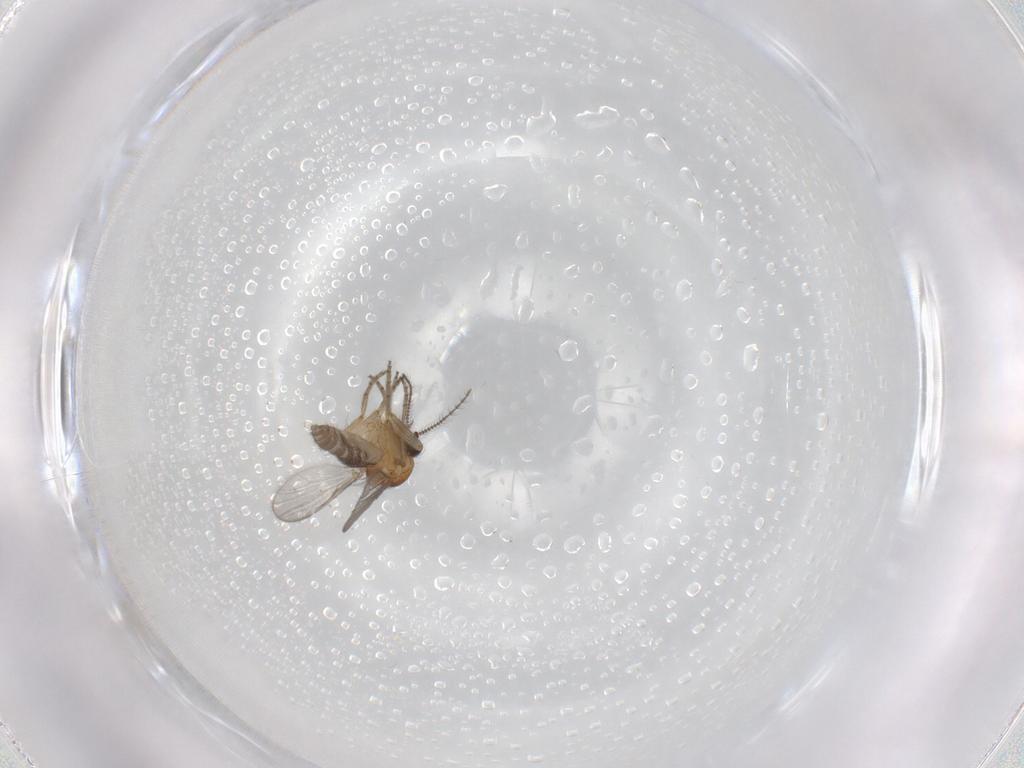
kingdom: Animalia
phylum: Arthropoda
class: Insecta
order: Diptera
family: Ceratopogonidae
